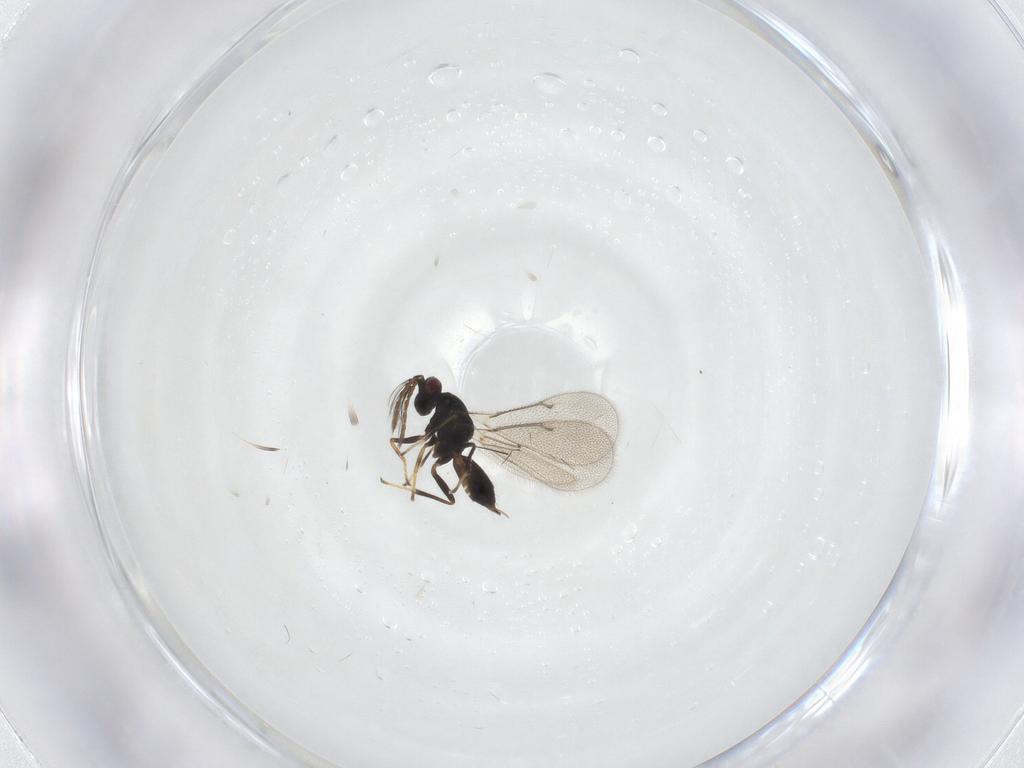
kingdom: Animalia
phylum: Arthropoda
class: Insecta
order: Hymenoptera
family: Eulophidae
